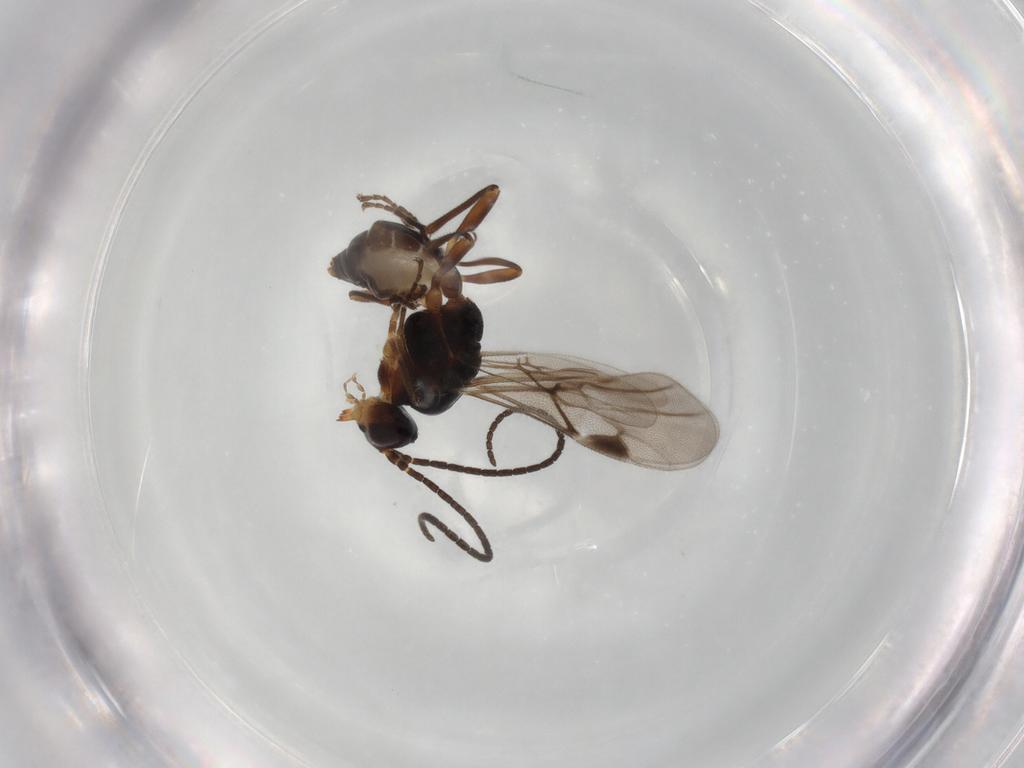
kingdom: Animalia
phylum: Arthropoda
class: Insecta
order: Hymenoptera
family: Braconidae
